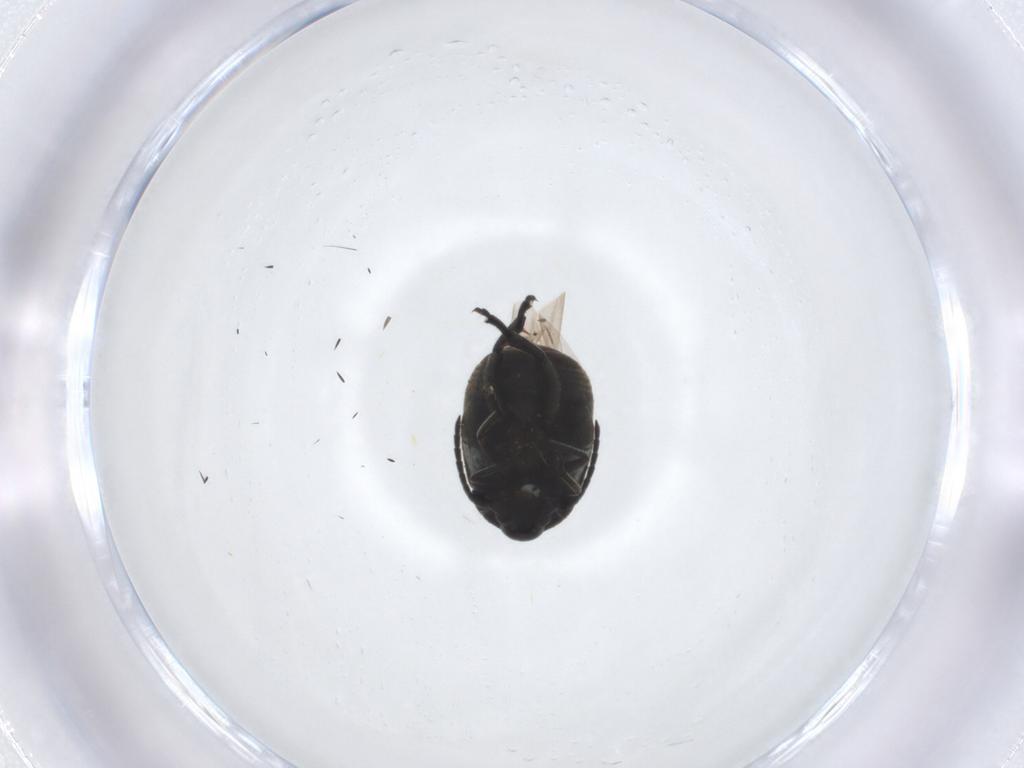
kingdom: Animalia
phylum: Arthropoda
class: Insecta
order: Coleoptera
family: Chrysomelidae
